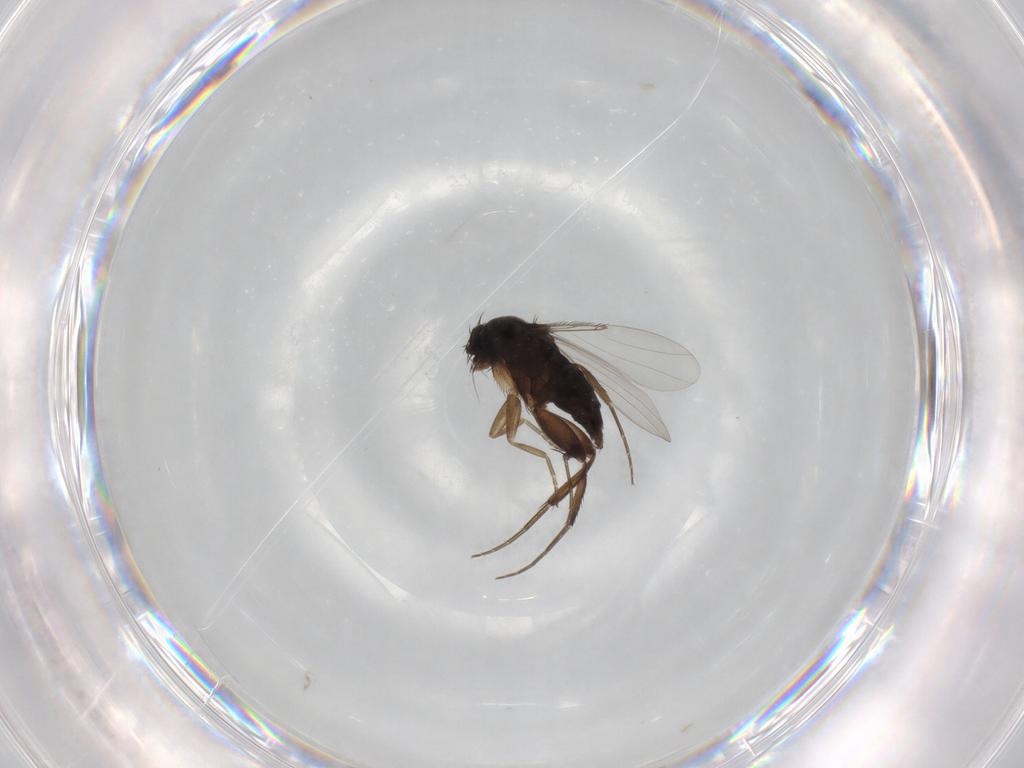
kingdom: Animalia
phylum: Arthropoda
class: Insecta
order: Diptera
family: Phoridae
